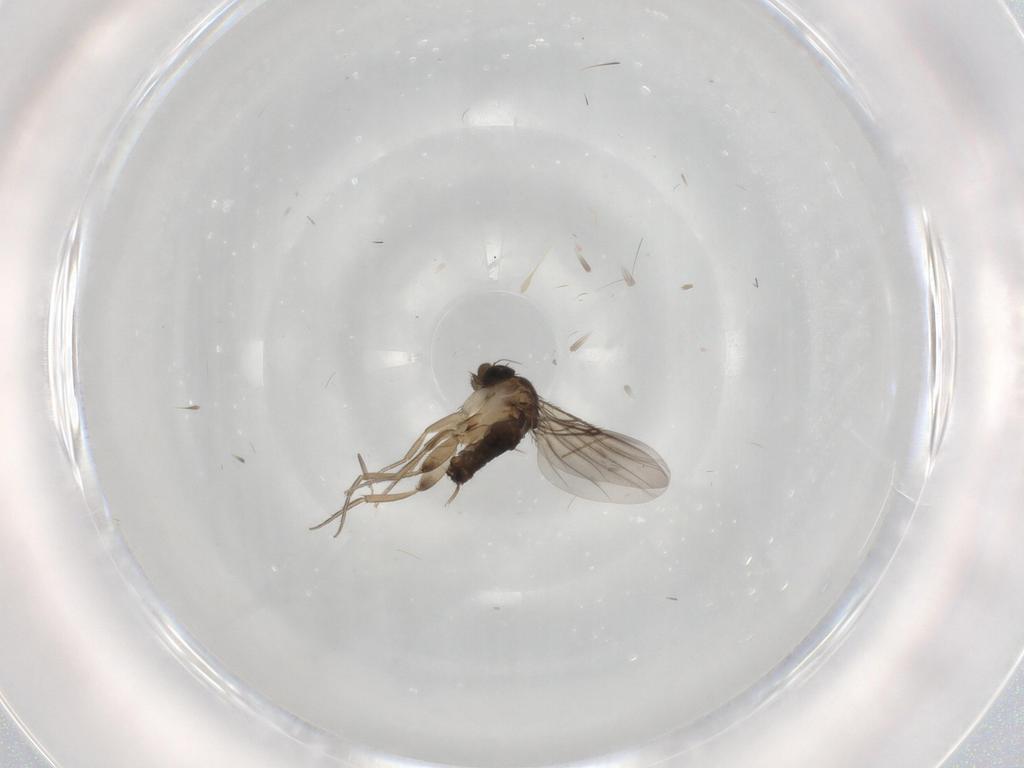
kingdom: Animalia
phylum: Arthropoda
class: Insecta
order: Diptera
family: Phoridae
